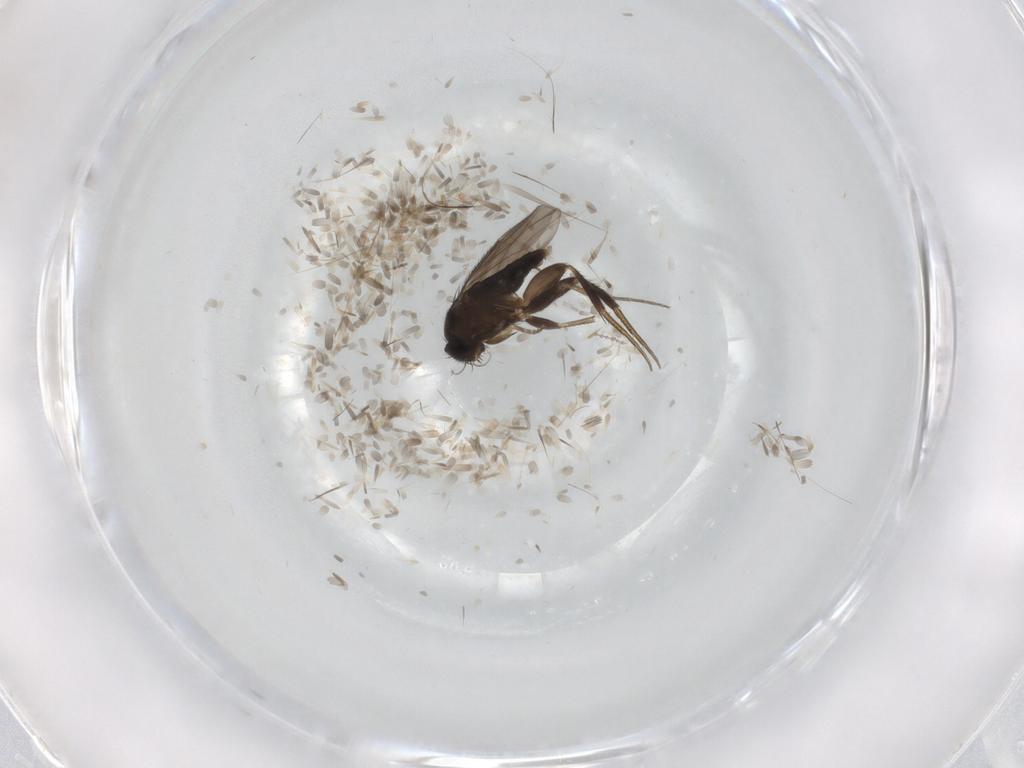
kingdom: Animalia
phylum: Arthropoda
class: Insecta
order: Diptera
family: Phoridae
